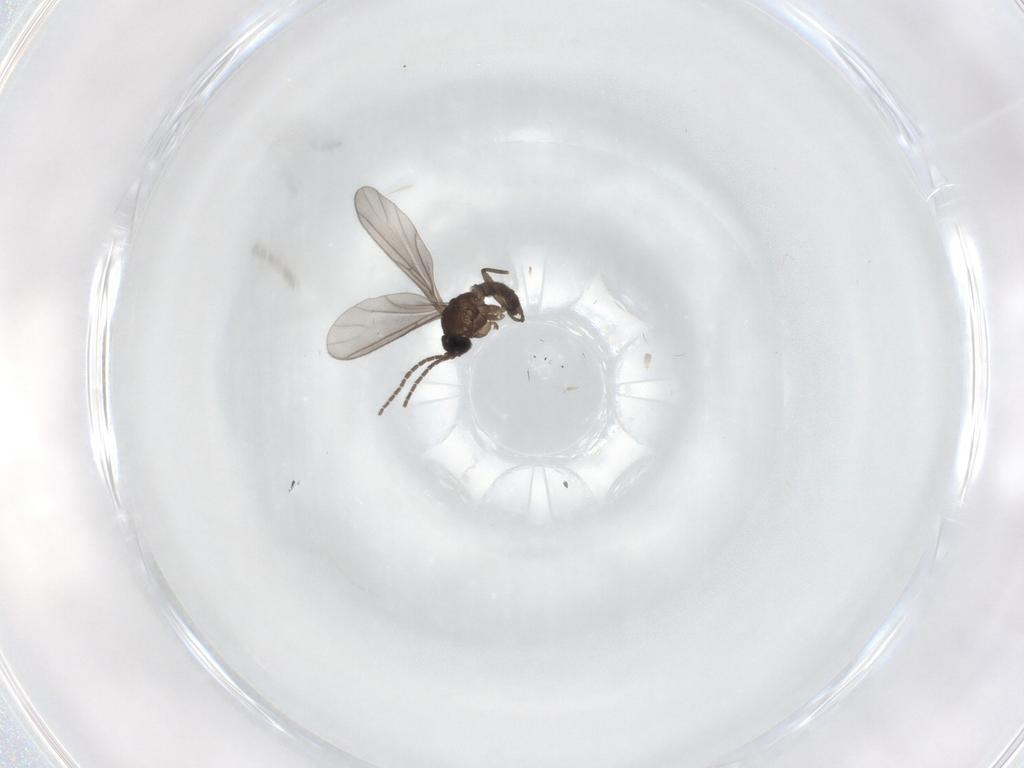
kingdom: Animalia
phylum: Arthropoda
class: Insecta
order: Diptera
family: Sciaridae
